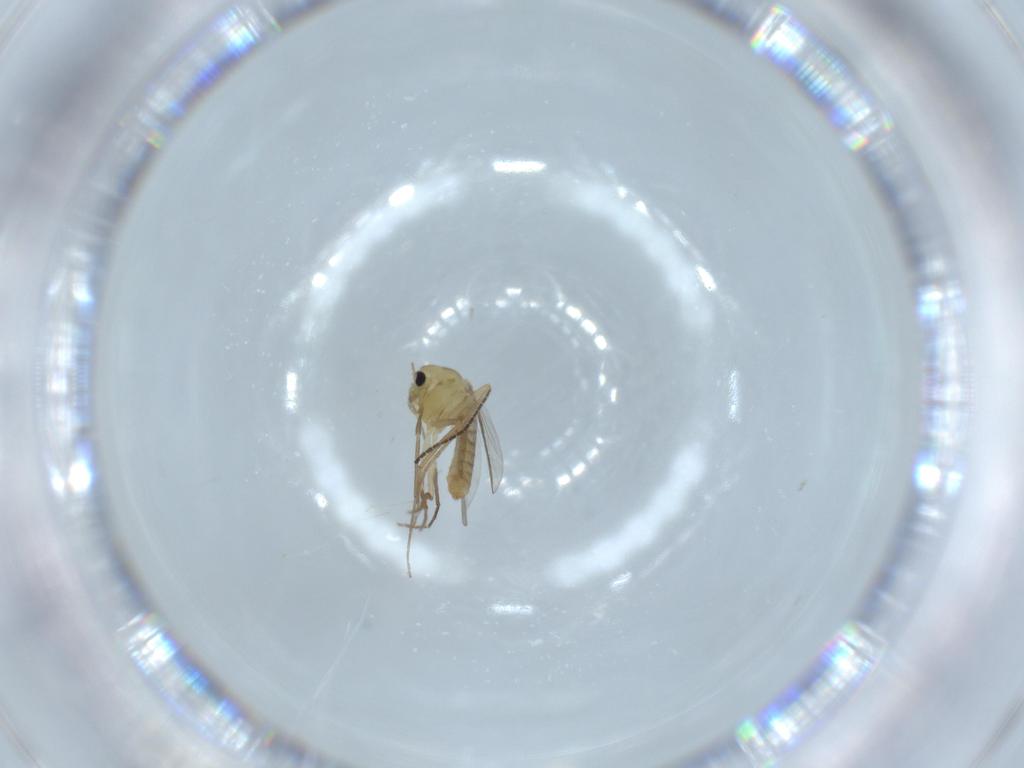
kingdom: Animalia
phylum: Arthropoda
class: Insecta
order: Diptera
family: Chironomidae
